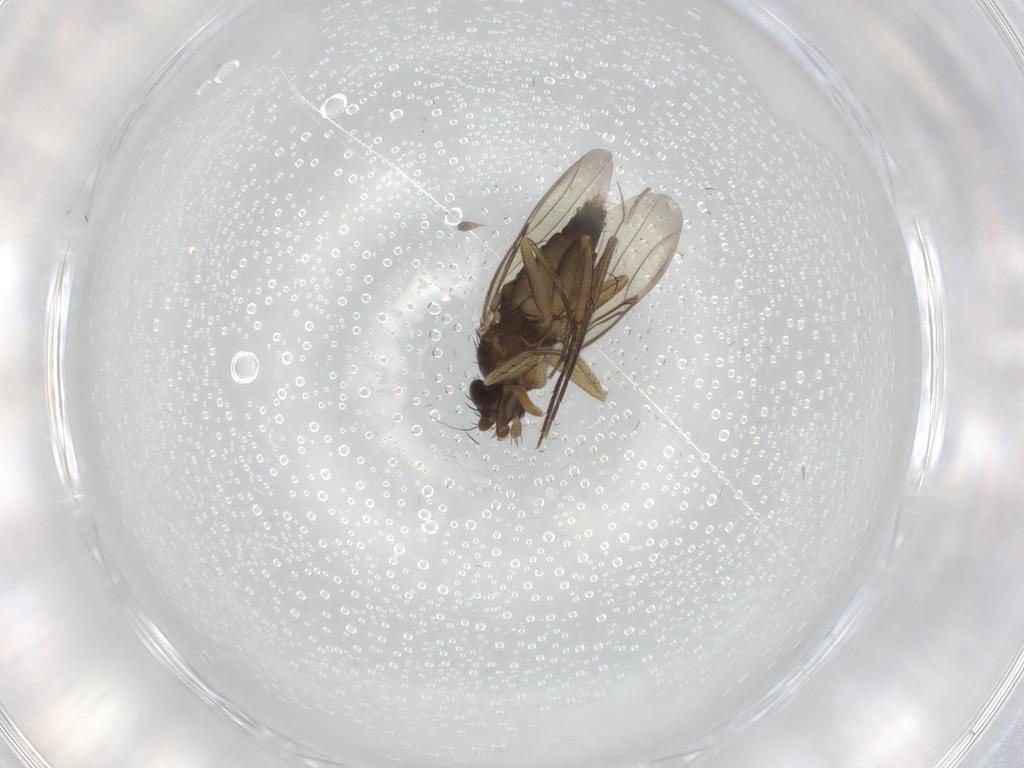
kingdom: Animalia
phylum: Arthropoda
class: Insecta
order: Diptera
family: Psychodidae
